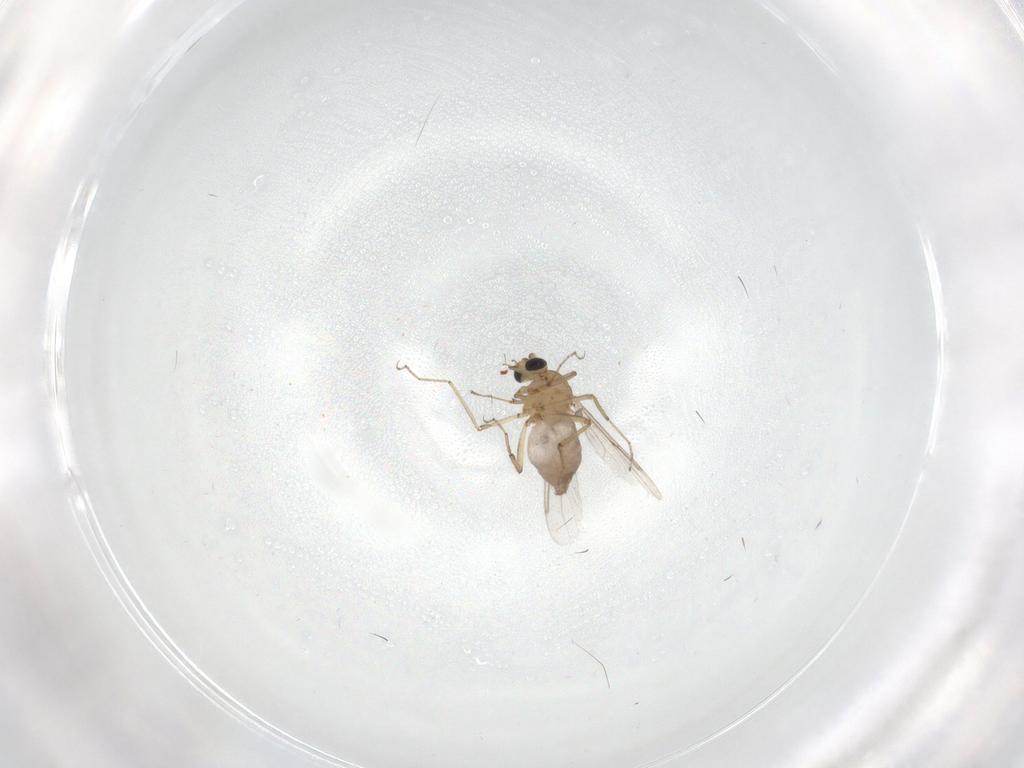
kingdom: Animalia
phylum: Arthropoda
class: Insecta
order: Diptera
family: Psychodidae
